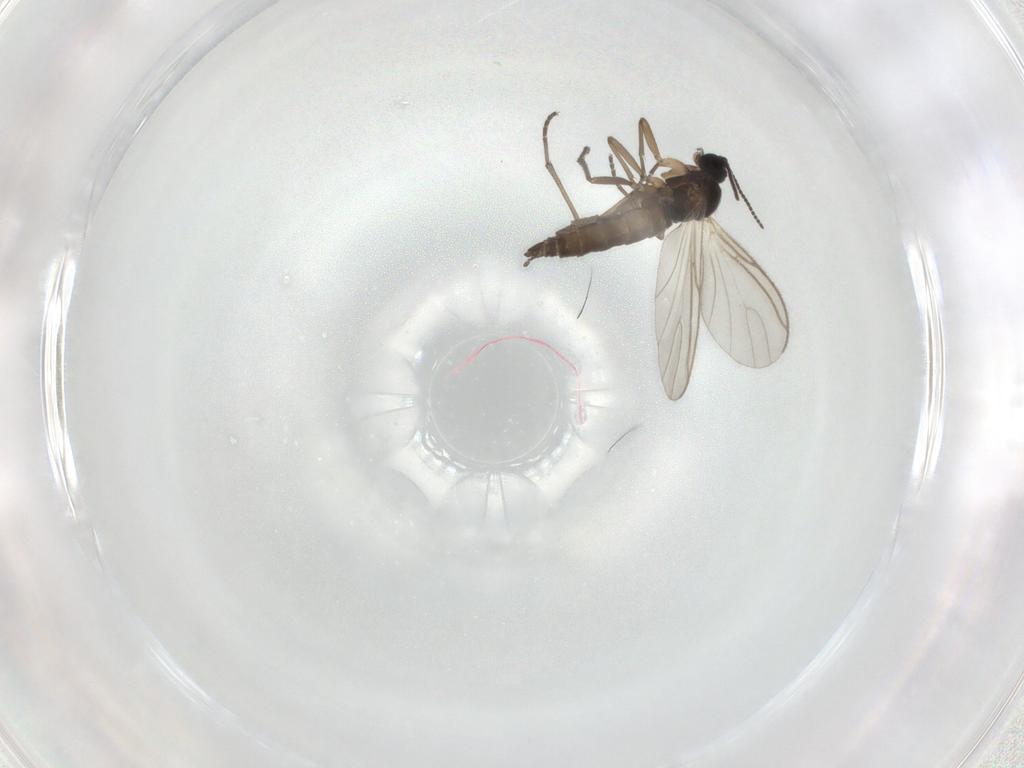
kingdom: Animalia
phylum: Arthropoda
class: Insecta
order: Diptera
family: Chironomidae
